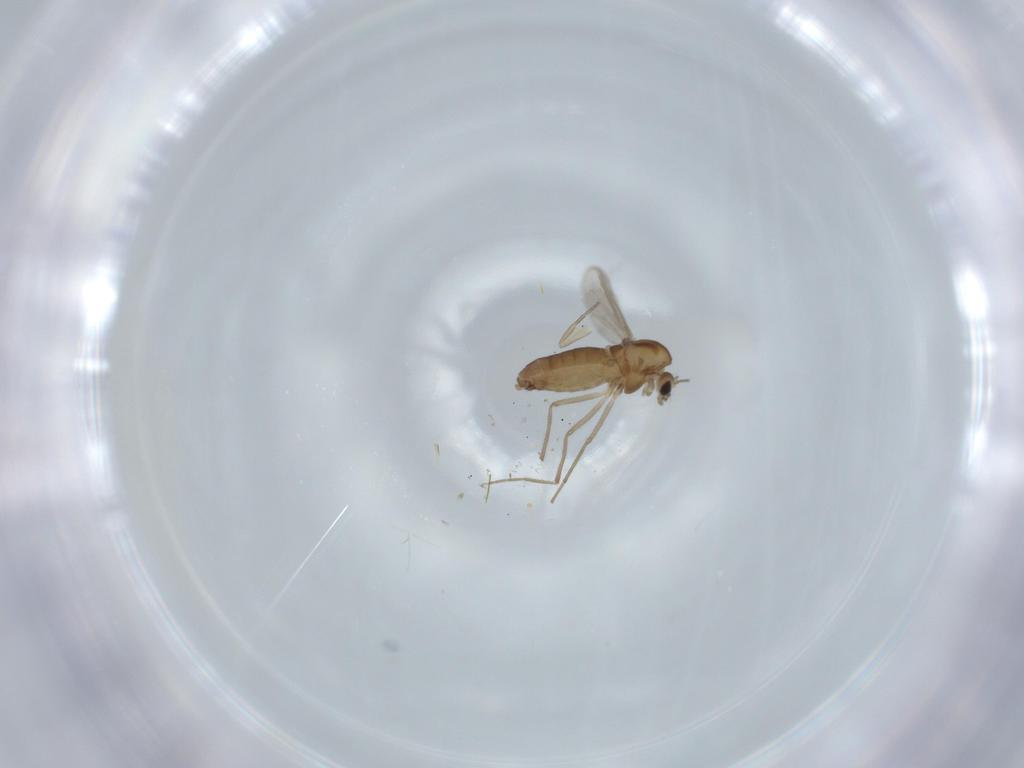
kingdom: Animalia
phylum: Arthropoda
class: Insecta
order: Diptera
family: Chironomidae
